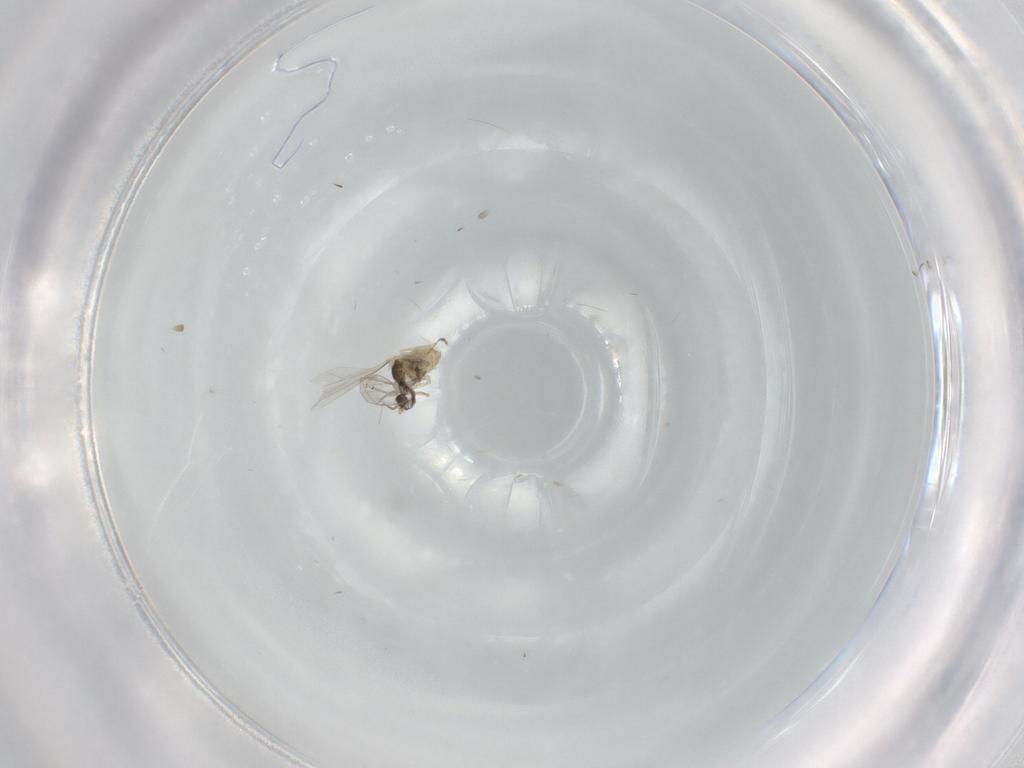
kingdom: Animalia
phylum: Arthropoda
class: Insecta
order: Diptera
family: Cecidomyiidae
